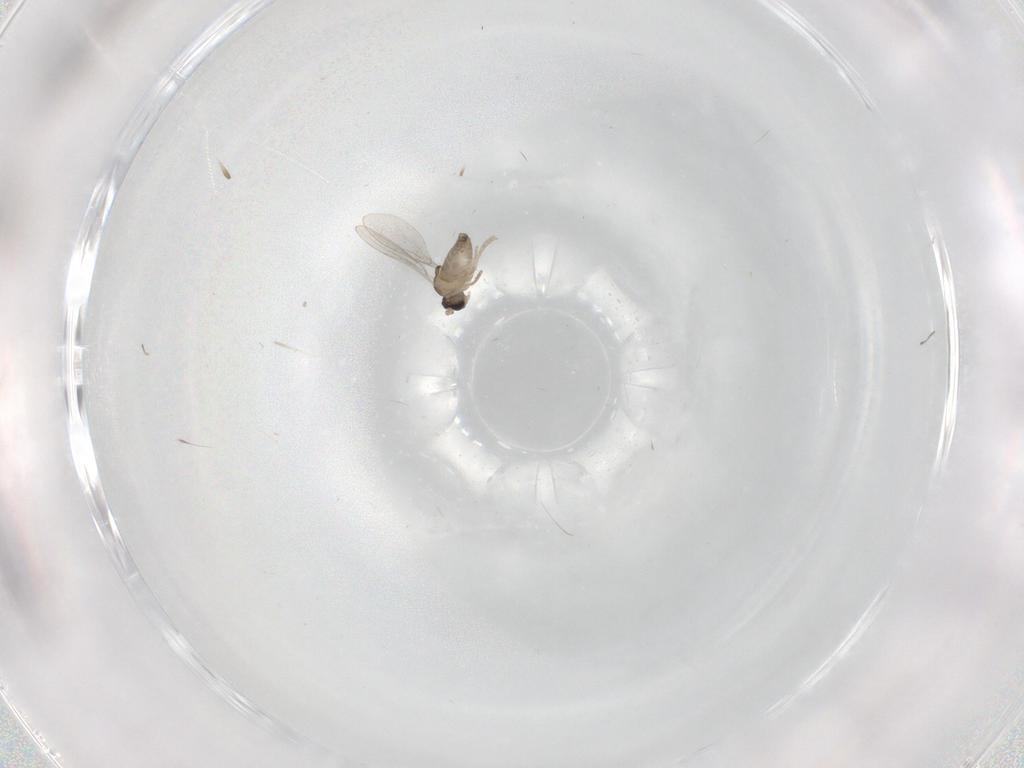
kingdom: Animalia
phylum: Arthropoda
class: Insecta
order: Diptera
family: Cecidomyiidae
